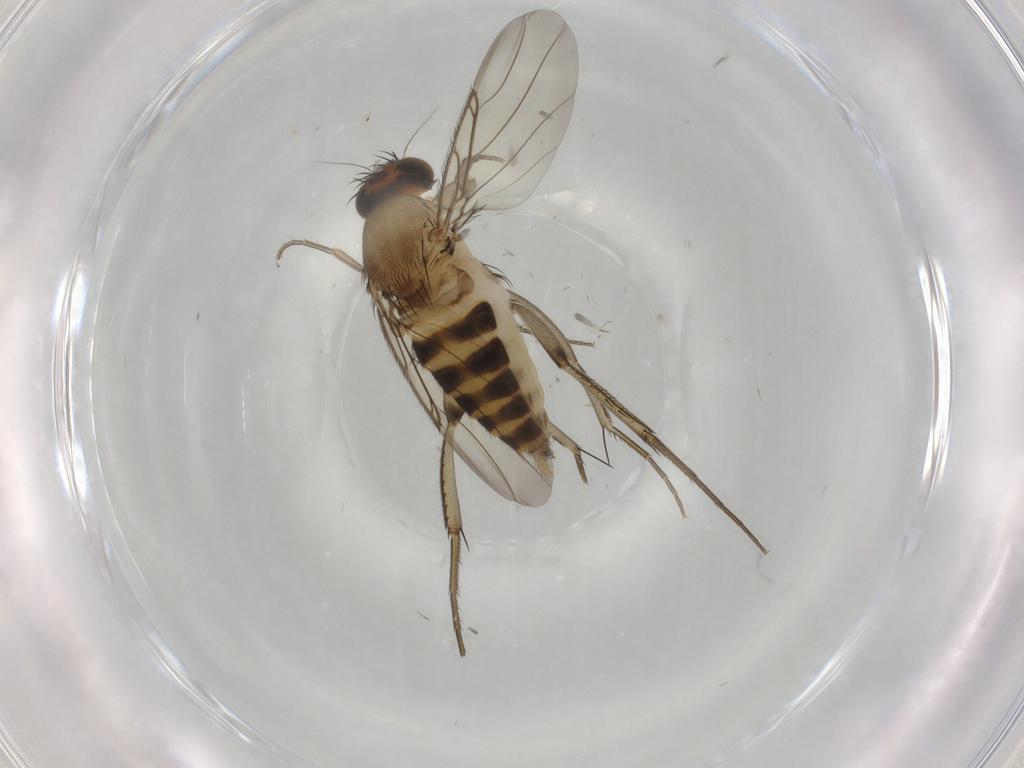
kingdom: Animalia
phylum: Arthropoda
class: Insecta
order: Diptera
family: Phoridae
